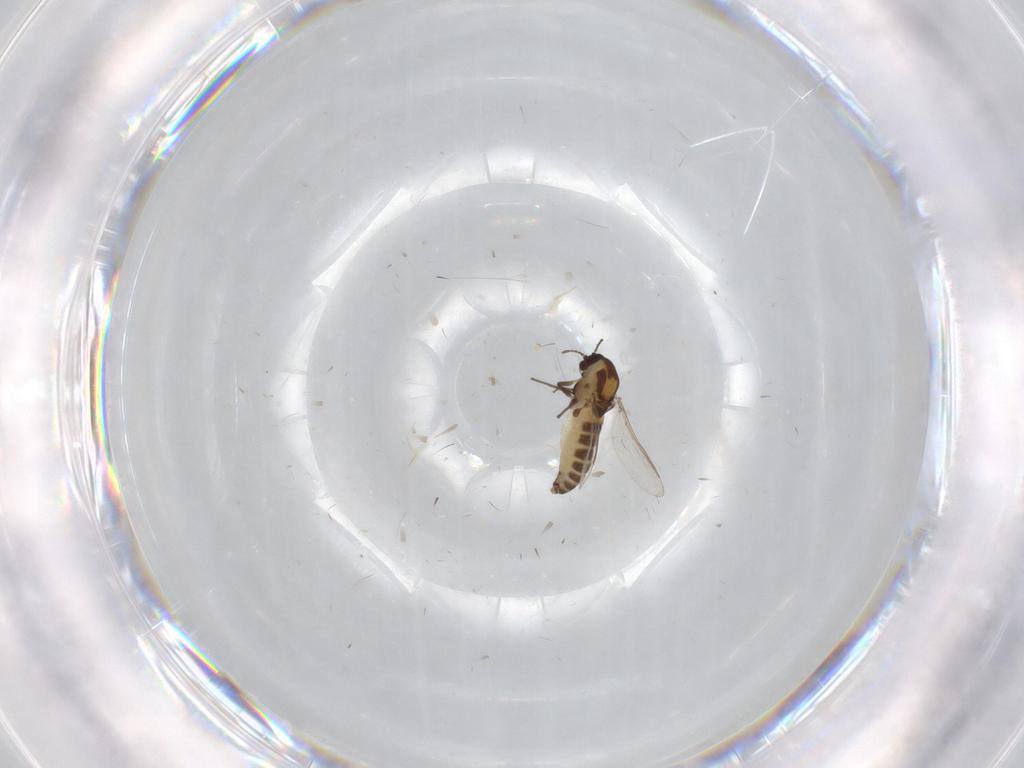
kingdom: Animalia
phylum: Arthropoda
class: Insecta
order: Diptera
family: Chironomidae
